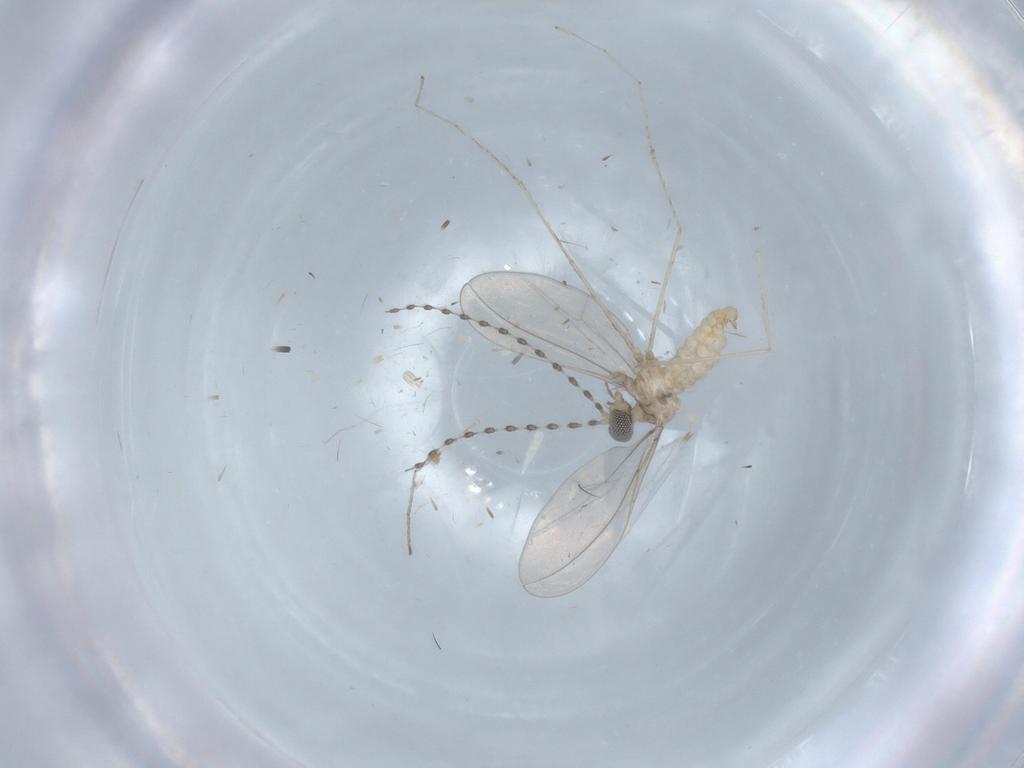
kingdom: Animalia
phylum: Arthropoda
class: Insecta
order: Diptera
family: Cecidomyiidae
